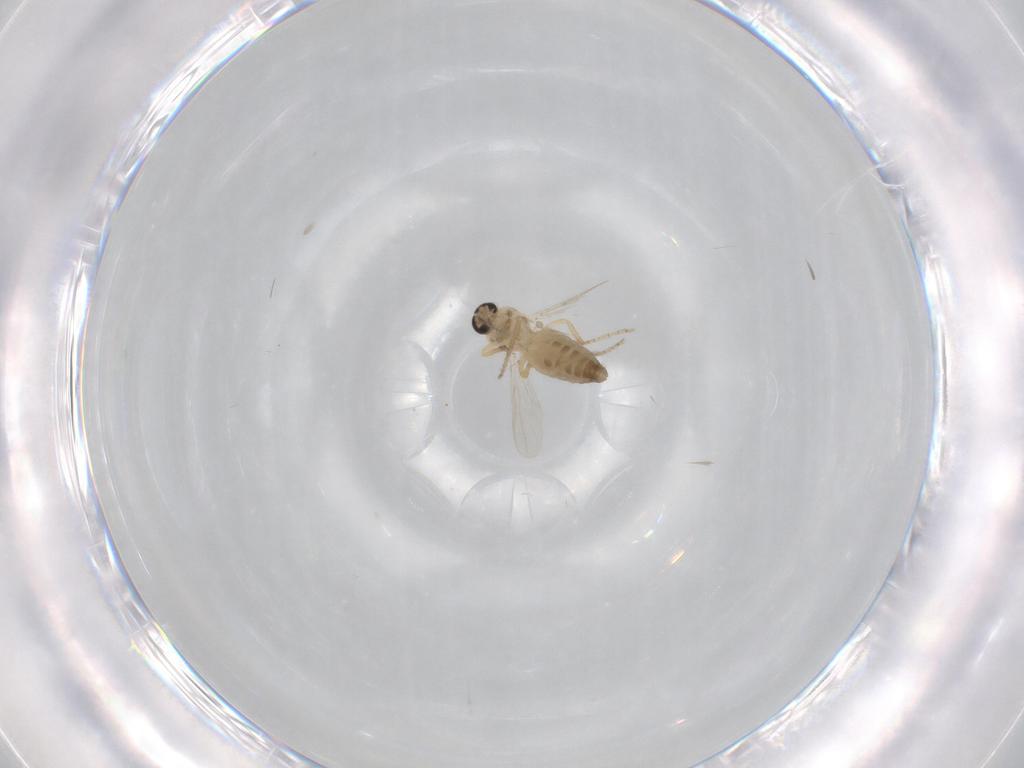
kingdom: Animalia
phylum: Arthropoda
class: Insecta
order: Diptera
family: Ceratopogonidae
